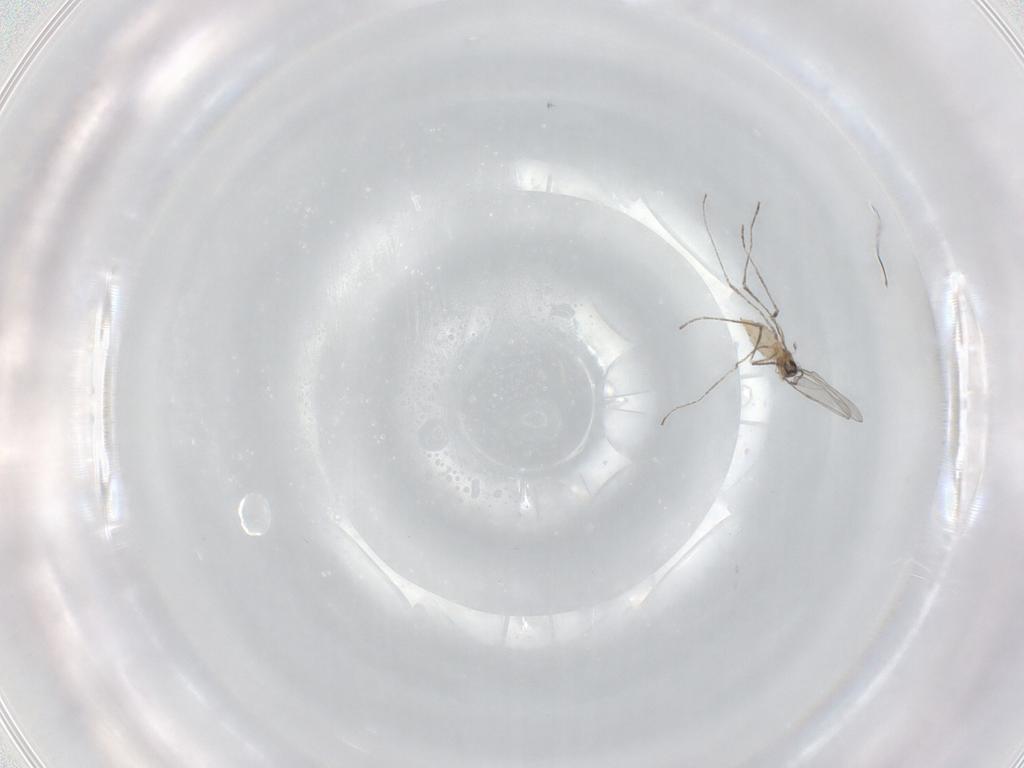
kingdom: Animalia
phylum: Arthropoda
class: Insecta
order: Diptera
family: Cecidomyiidae
